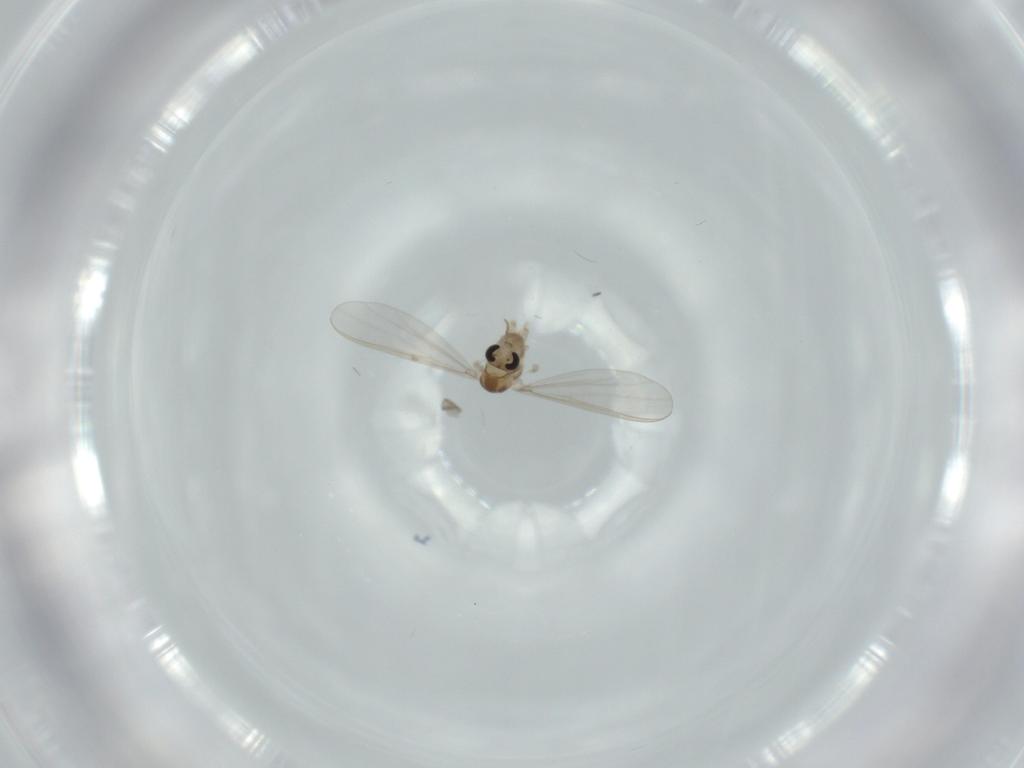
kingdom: Animalia
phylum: Arthropoda
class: Insecta
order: Diptera
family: Chironomidae
